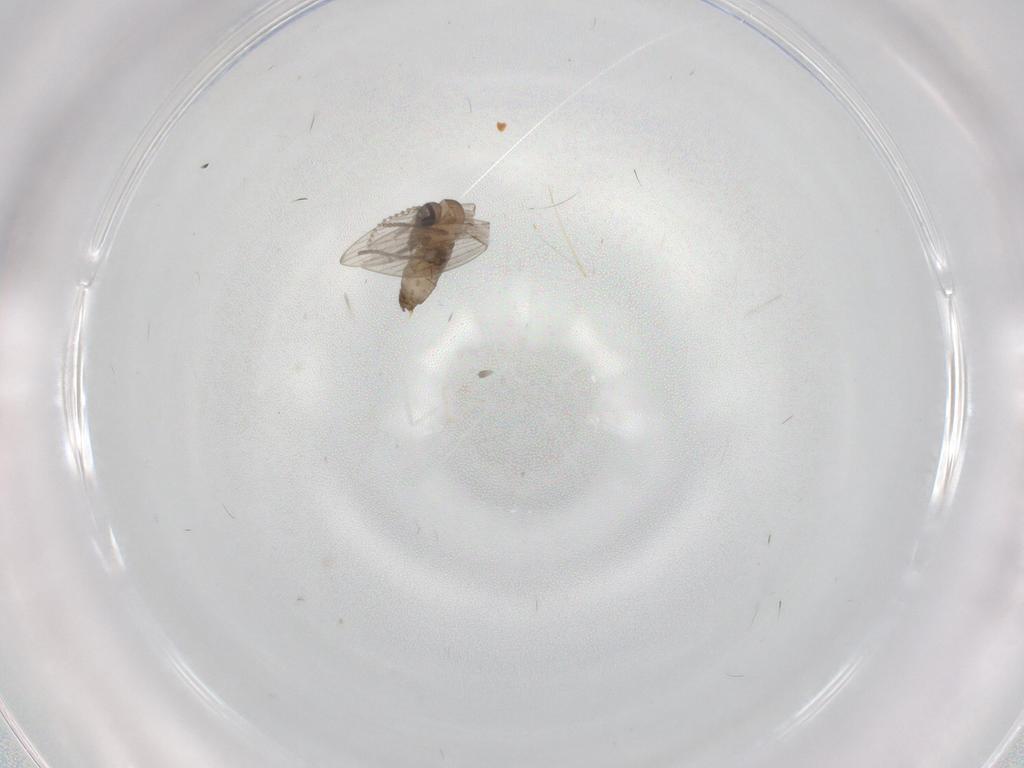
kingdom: Animalia
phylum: Arthropoda
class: Insecta
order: Diptera
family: Psychodidae
